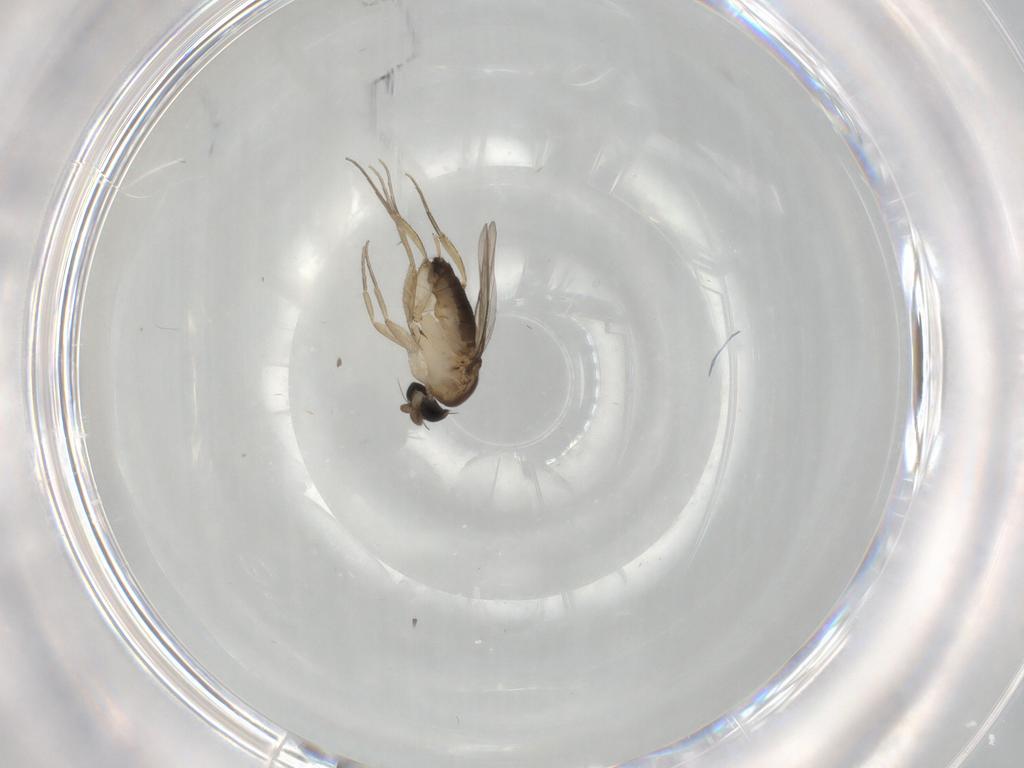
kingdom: Animalia
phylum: Arthropoda
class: Insecta
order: Diptera
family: Phoridae
